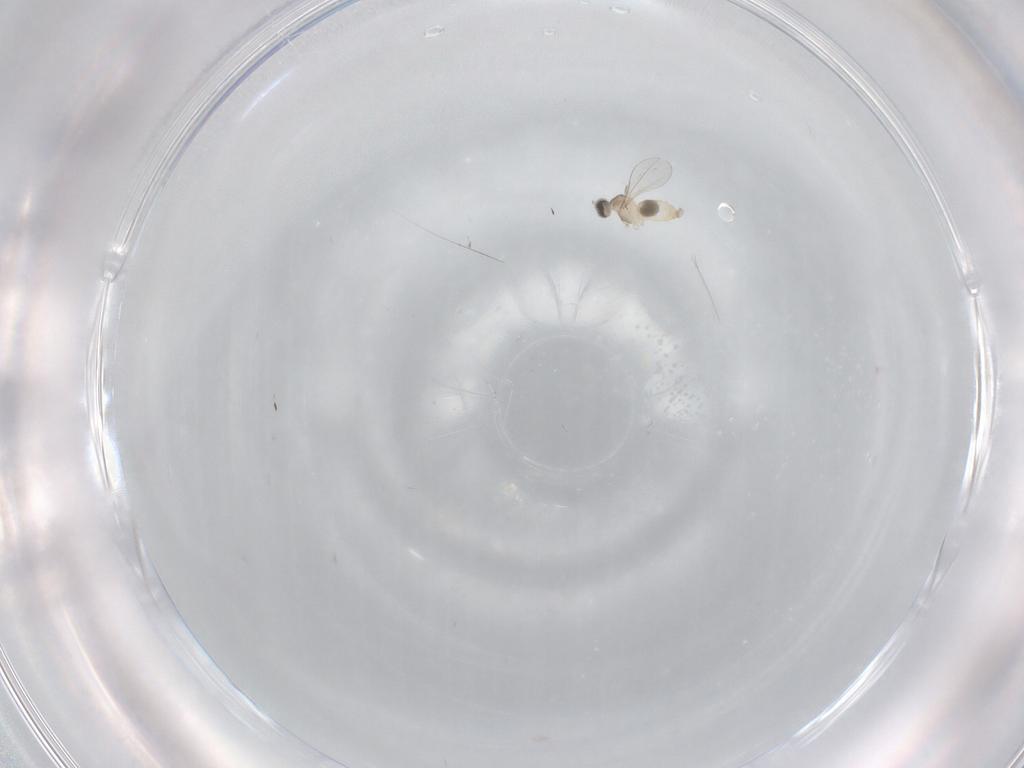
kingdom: Animalia
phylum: Arthropoda
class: Insecta
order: Diptera
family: Cecidomyiidae
